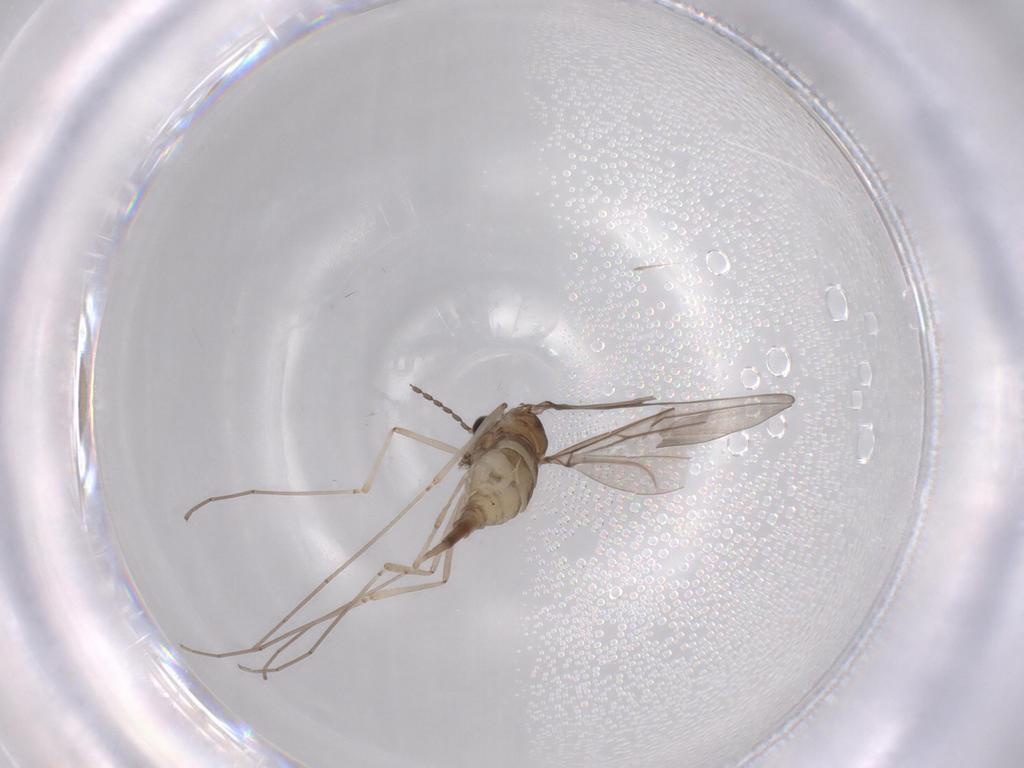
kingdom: Animalia
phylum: Arthropoda
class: Insecta
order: Diptera
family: Cecidomyiidae
